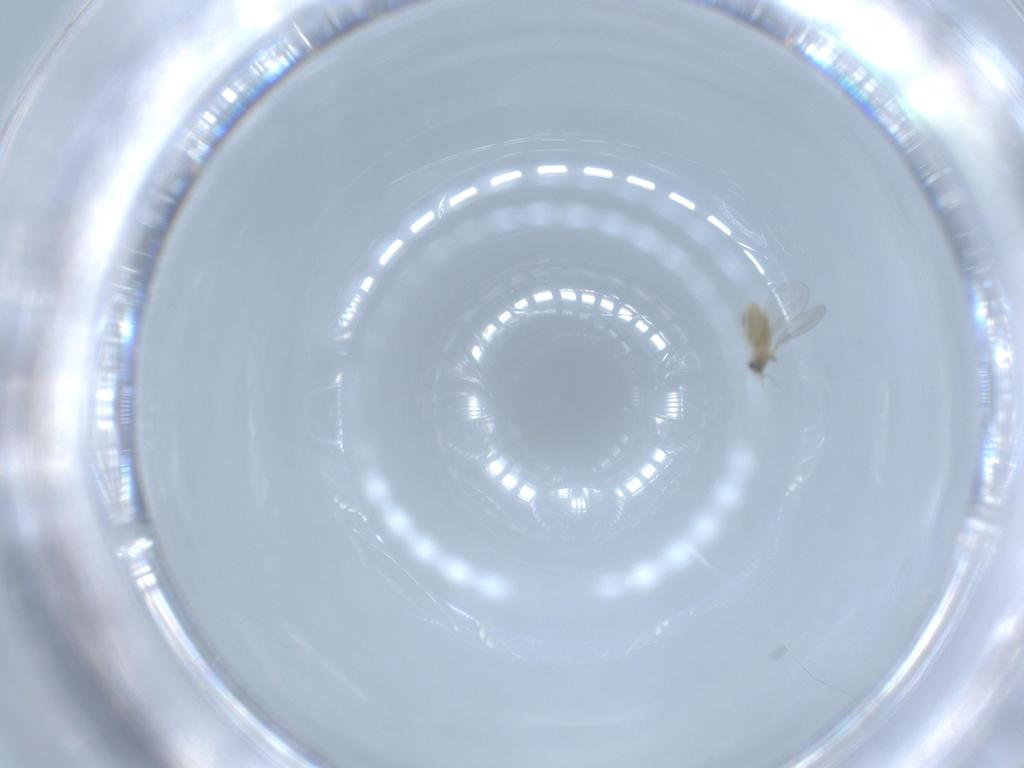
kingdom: Animalia
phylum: Arthropoda
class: Insecta
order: Diptera
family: Cecidomyiidae
